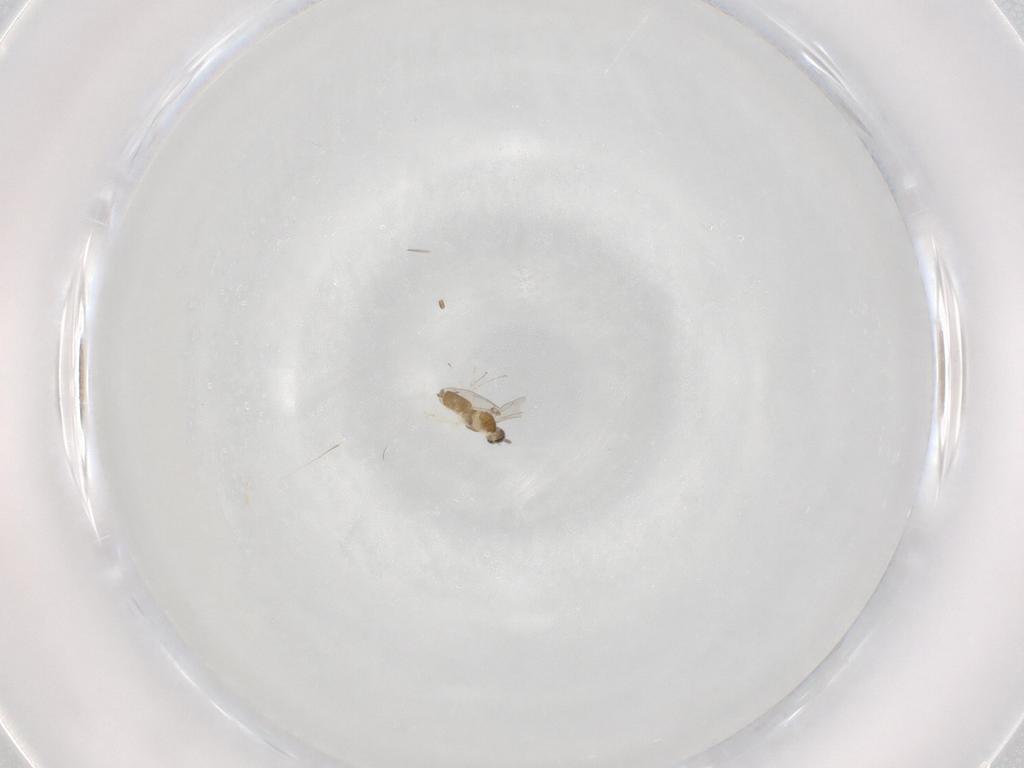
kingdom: Animalia
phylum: Arthropoda
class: Insecta
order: Diptera
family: Cecidomyiidae
